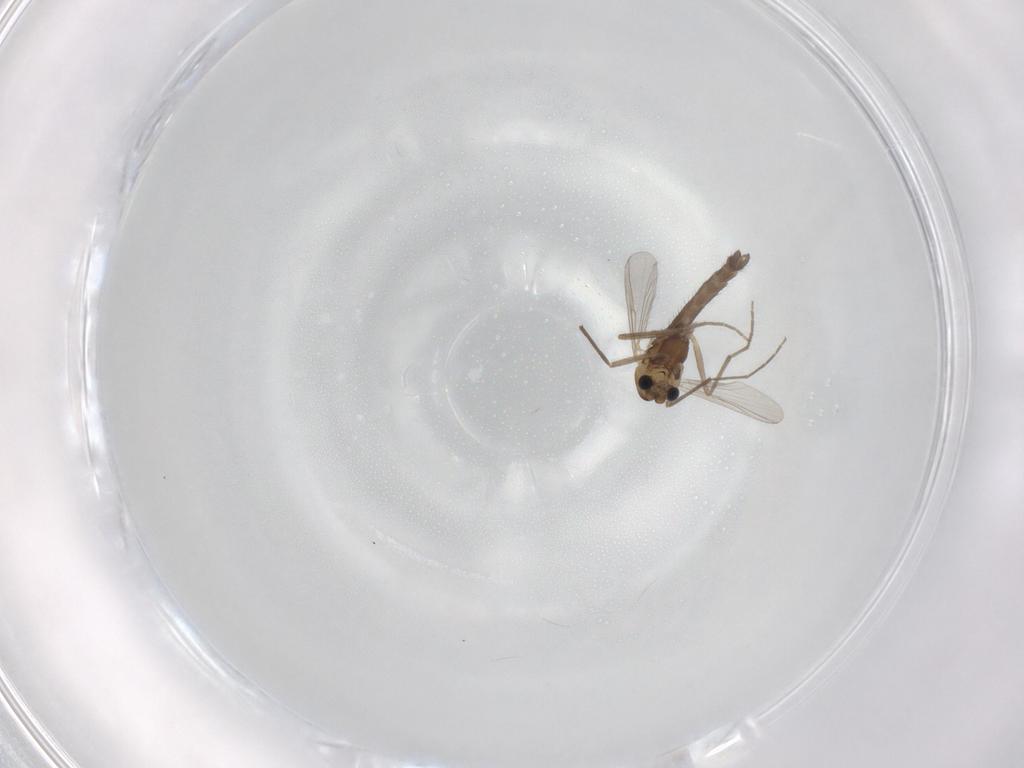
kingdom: Animalia
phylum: Arthropoda
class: Insecta
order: Diptera
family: Chironomidae
